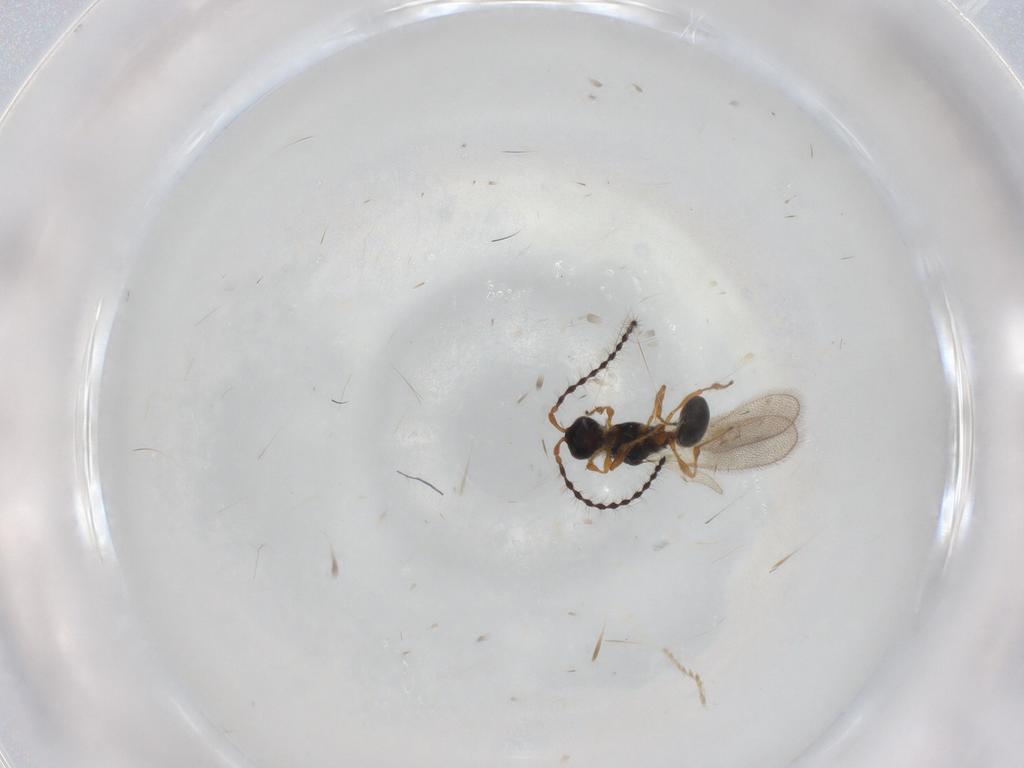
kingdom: Animalia
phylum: Arthropoda
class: Insecta
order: Hymenoptera
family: Diapriidae
